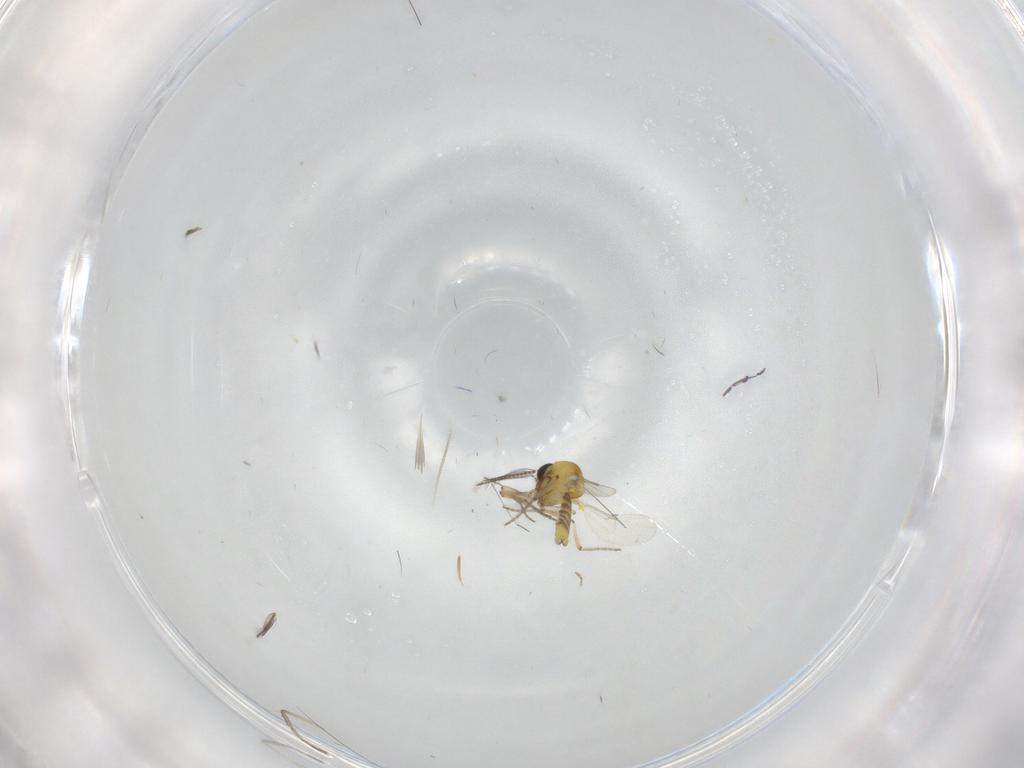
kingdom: Animalia
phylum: Arthropoda
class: Insecta
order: Diptera
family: Ceratopogonidae
